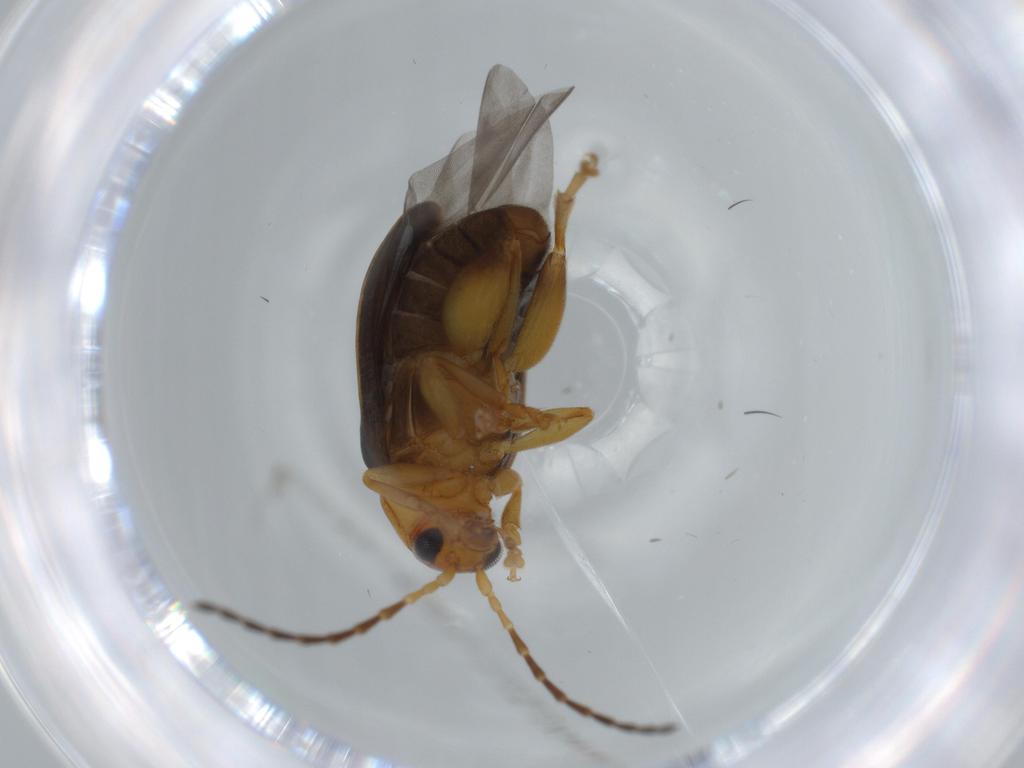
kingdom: Animalia
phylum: Arthropoda
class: Insecta
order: Coleoptera
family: Chrysomelidae
